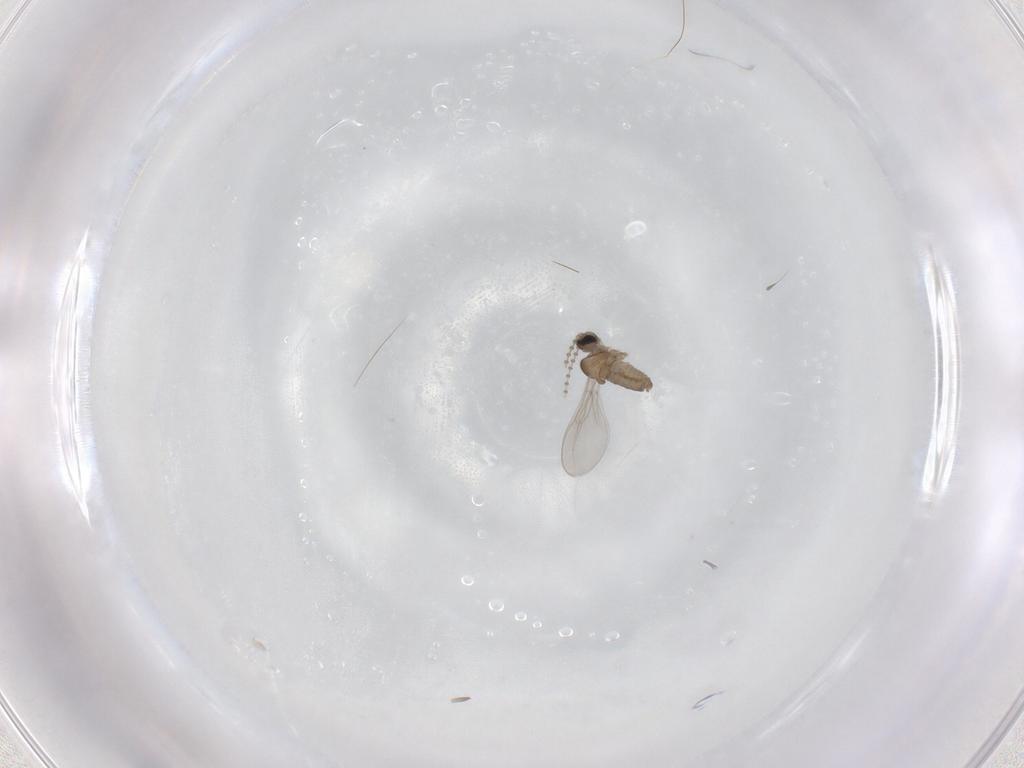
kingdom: Animalia
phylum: Arthropoda
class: Insecta
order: Diptera
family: Cecidomyiidae
